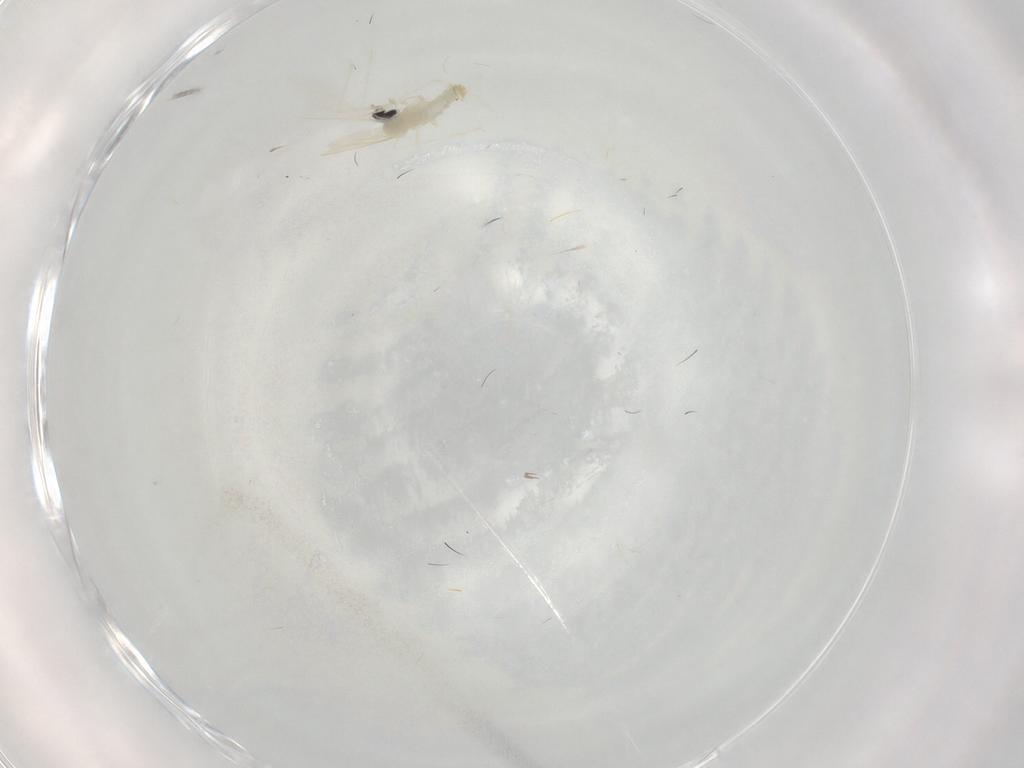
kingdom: Animalia
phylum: Arthropoda
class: Insecta
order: Diptera
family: Cecidomyiidae
